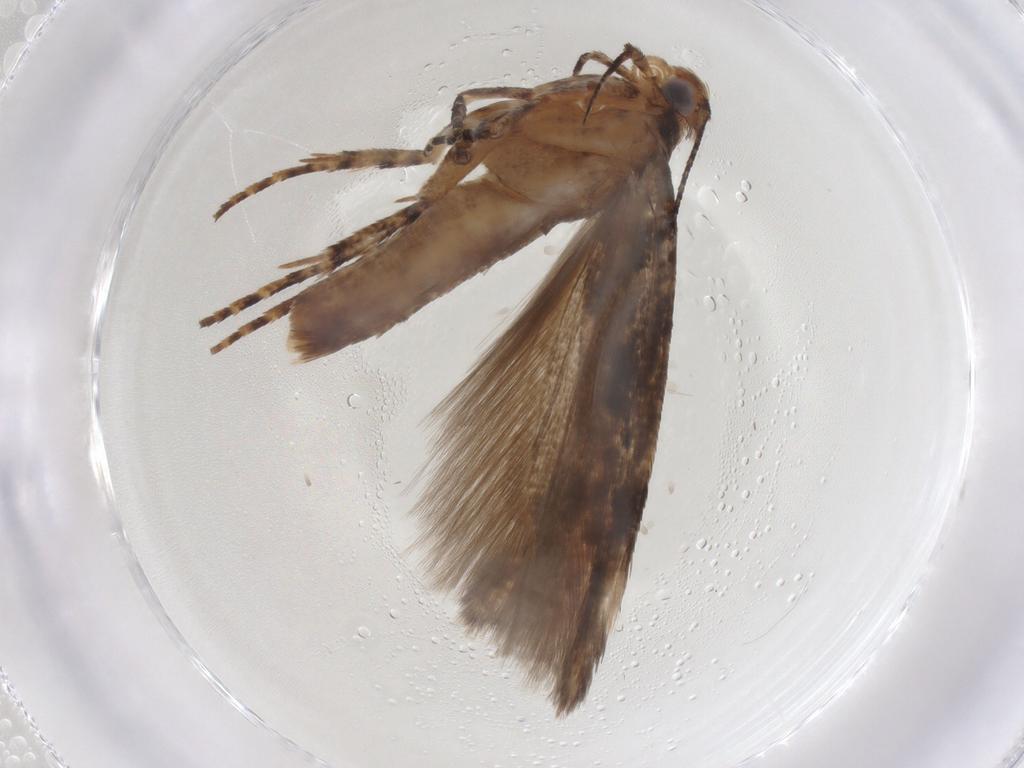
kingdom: Animalia
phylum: Arthropoda
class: Insecta
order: Lepidoptera
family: Gelechiidae
